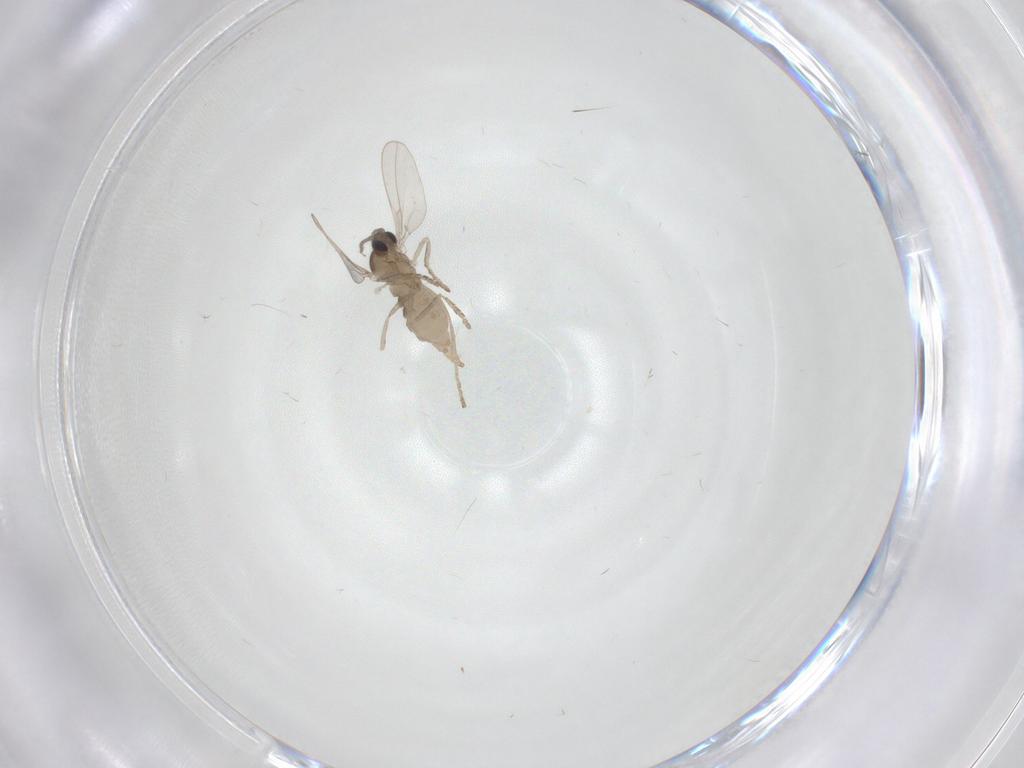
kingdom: Animalia
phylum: Arthropoda
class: Insecta
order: Diptera
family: Cecidomyiidae
